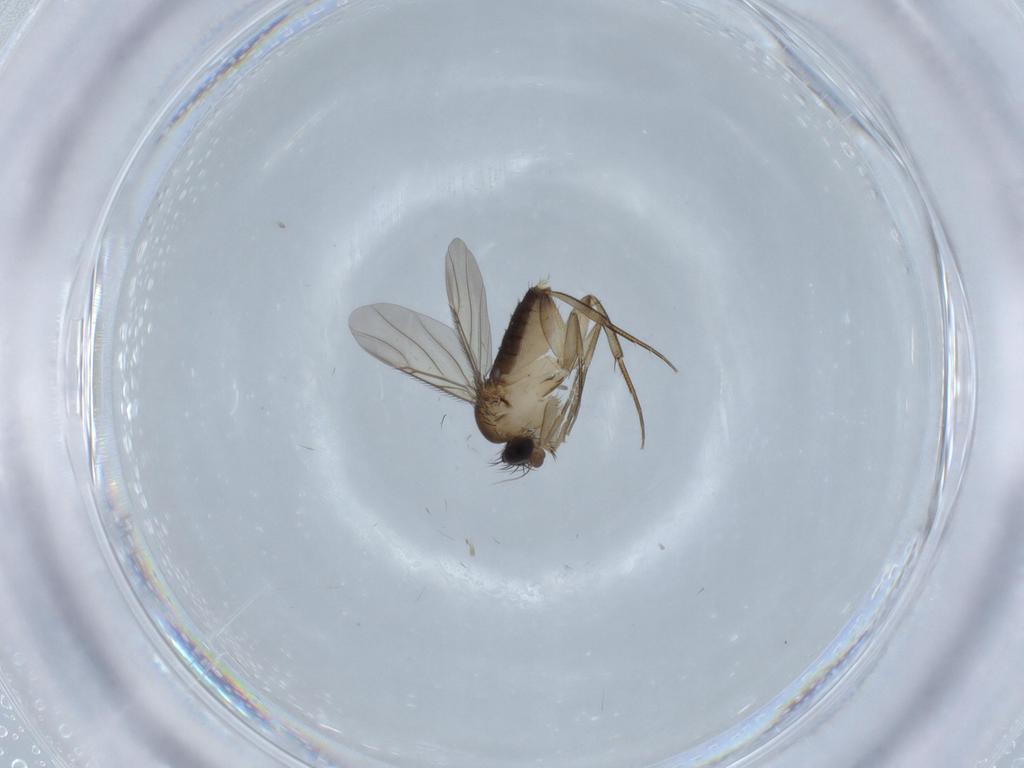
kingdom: Animalia
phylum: Arthropoda
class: Insecta
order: Diptera
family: Phoridae
